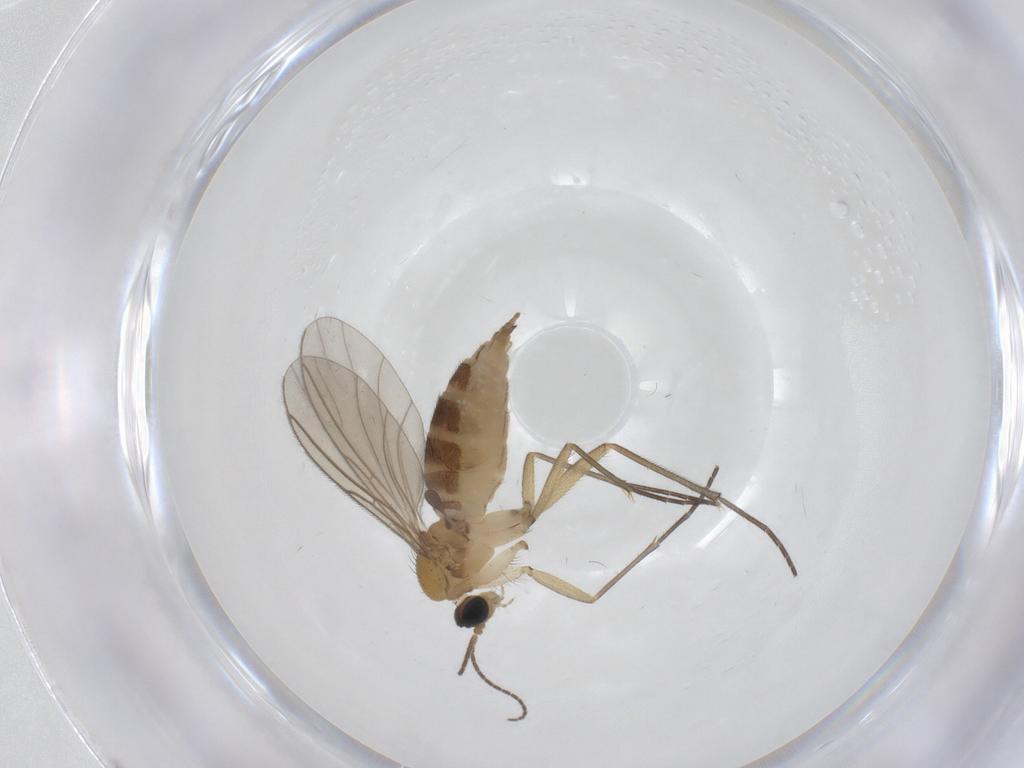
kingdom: Animalia
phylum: Arthropoda
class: Insecta
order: Diptera
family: Sciaridae
